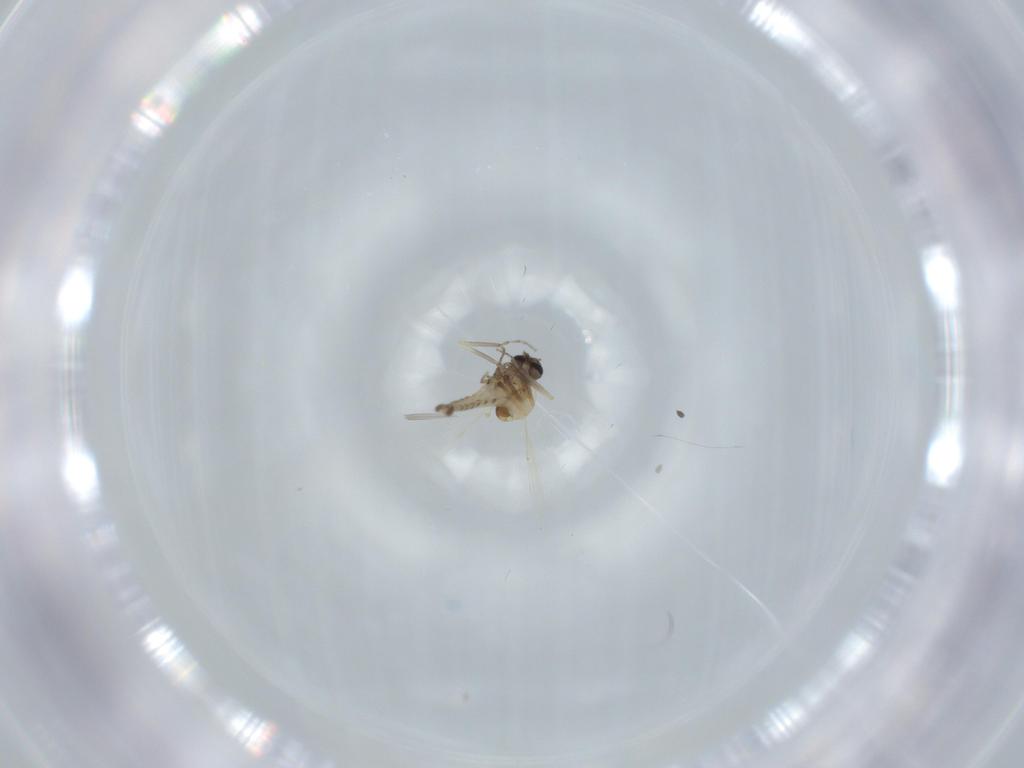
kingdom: Animalia
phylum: Arthropoda
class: Insecta
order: Diptera
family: Ceratopogonidae
